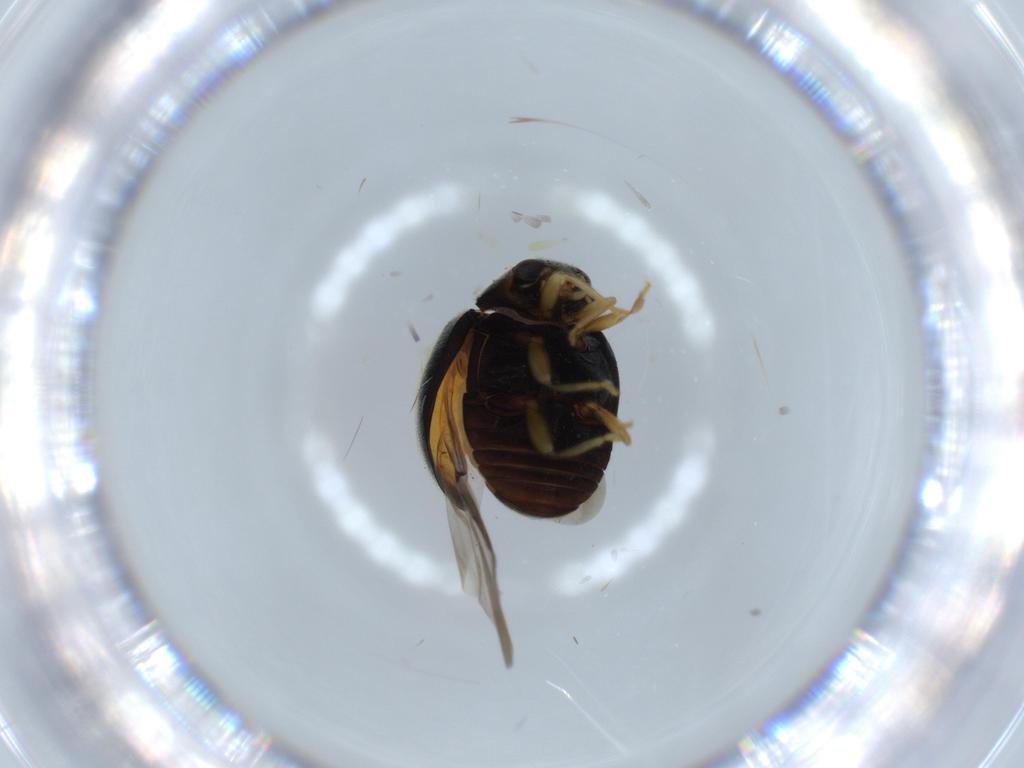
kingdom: Animalia
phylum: Arthropoda
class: Insecta
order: Coleoptera
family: Coccinellidae
